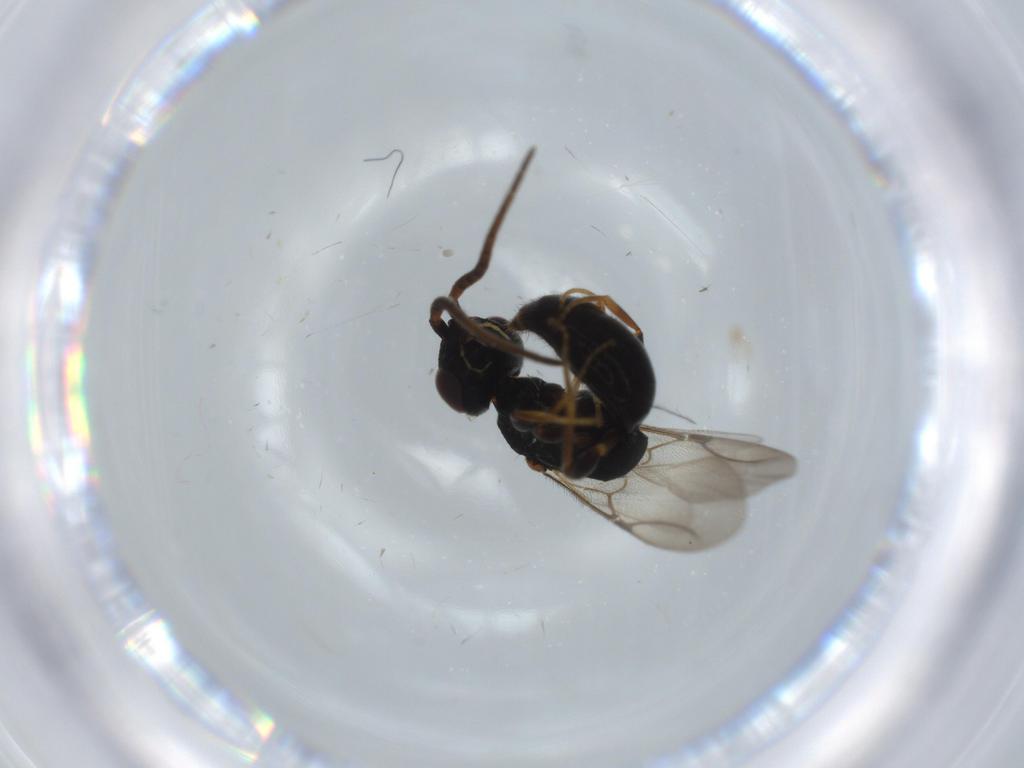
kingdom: Animalia
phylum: Arthropoda
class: Insecta
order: Hymenoptera
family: Bethylidae
